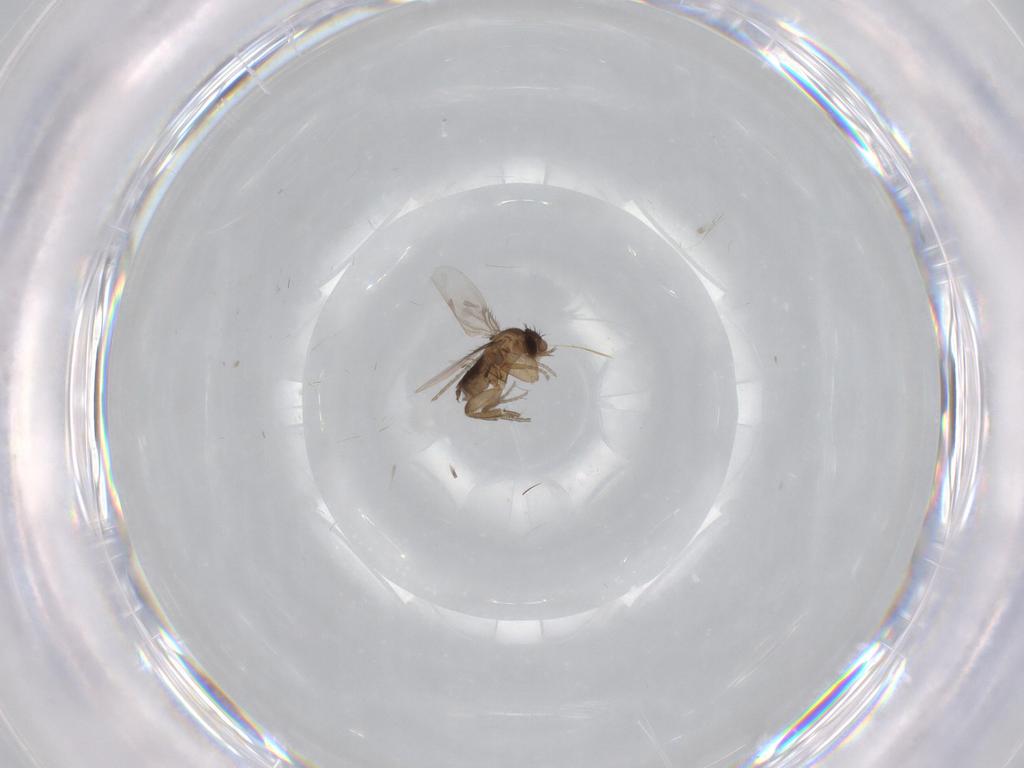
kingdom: Animalia
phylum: Arthropoda
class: Insecta
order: Diptera
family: Phoridae
